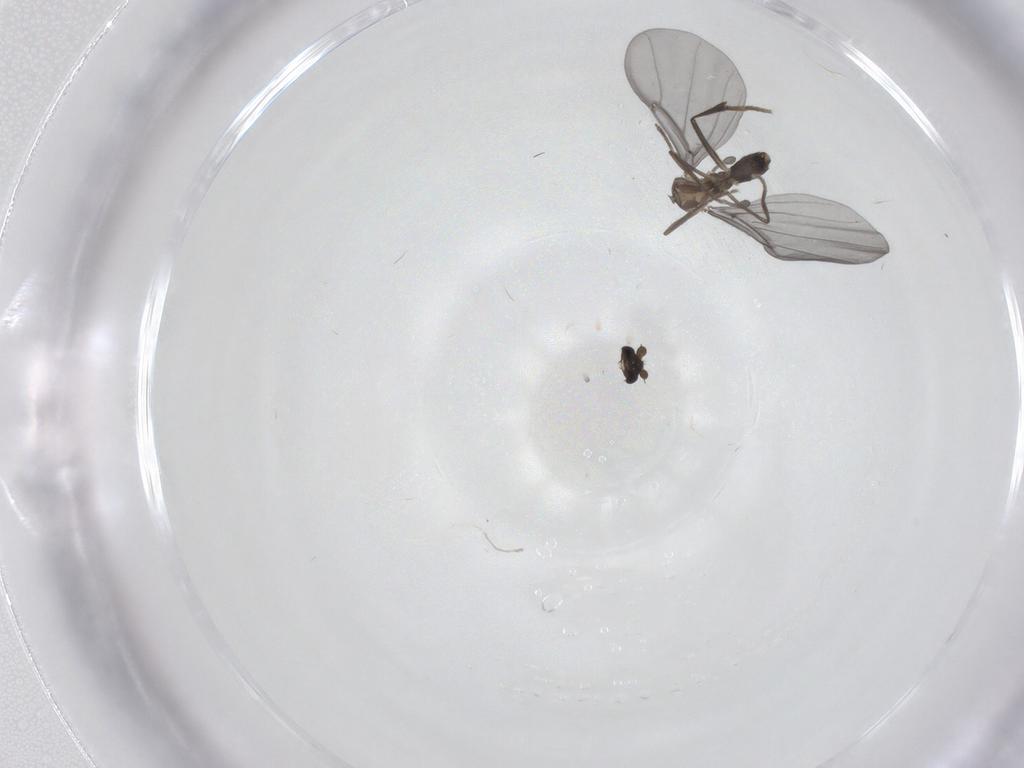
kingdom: Animalia
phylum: Arthropoda
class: Insecta
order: Diptera
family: Phoridae
